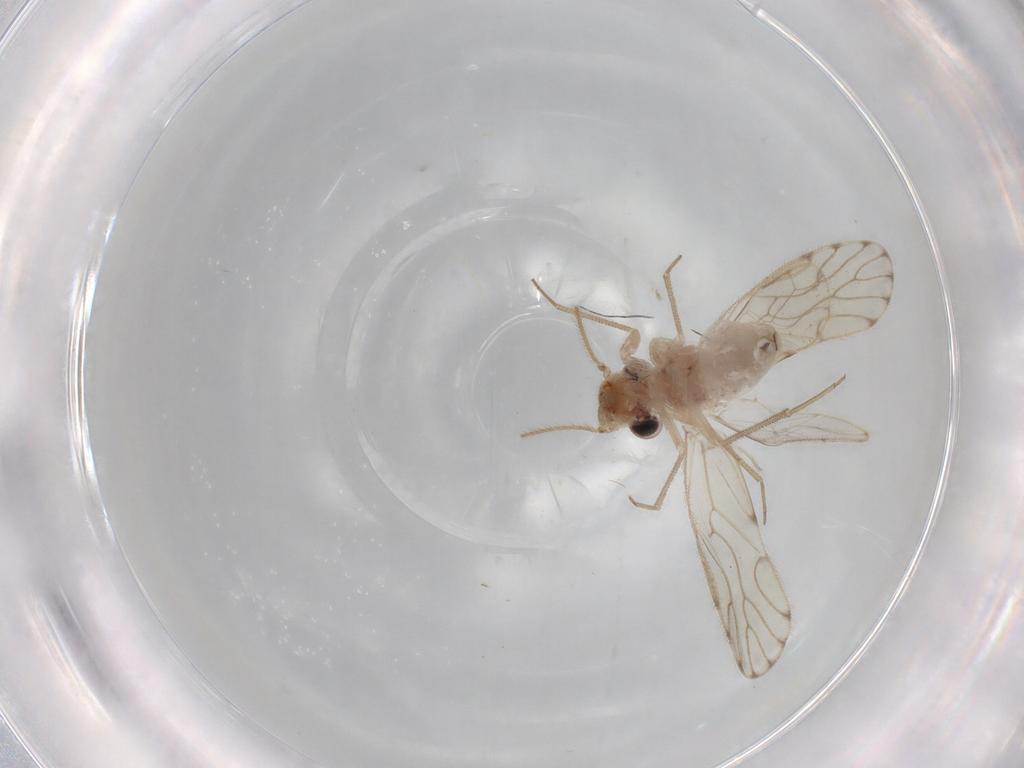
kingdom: Animalia
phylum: Arthropoda
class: Insecta
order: Psocodea
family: Epipsocidae
